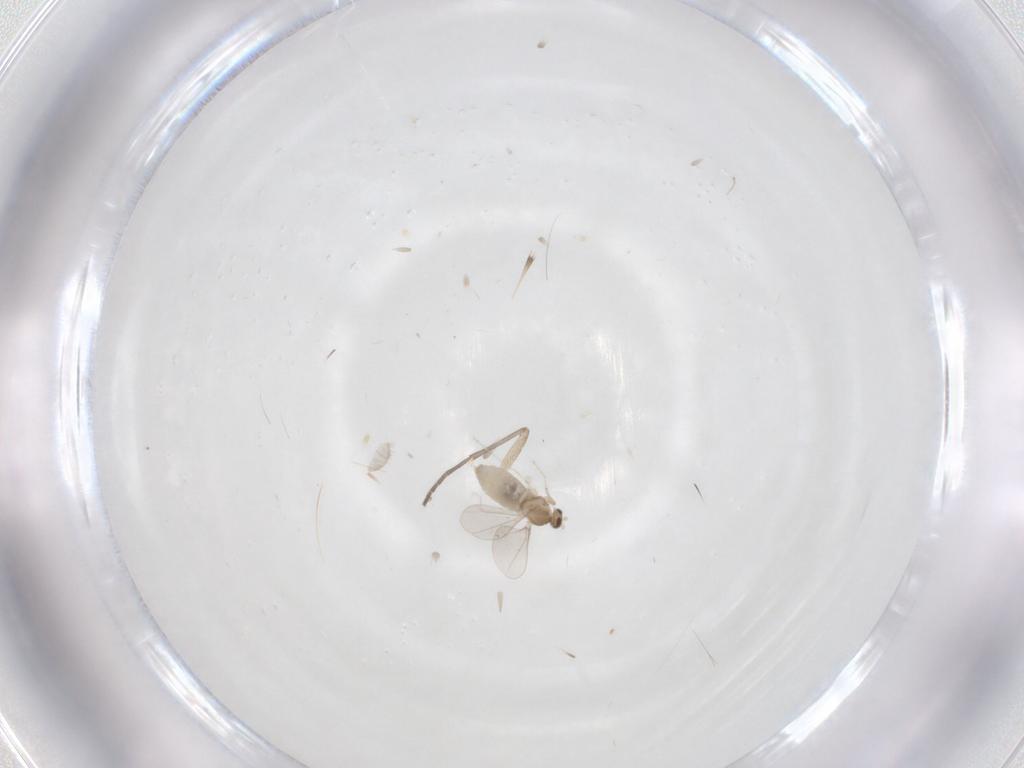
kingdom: Animalia
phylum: Arthropoda
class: Insecta
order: Diptera
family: Cecidomyiidae
